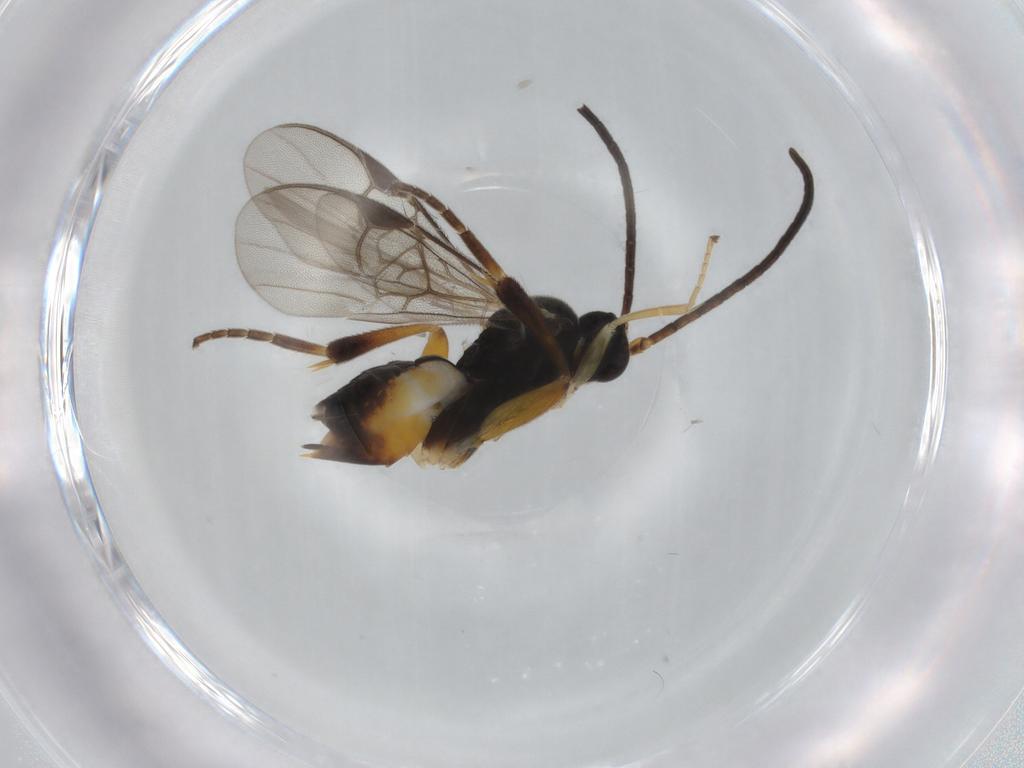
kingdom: Animalia
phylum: Arthropoda
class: Insecta
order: Hymenoptera
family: Braconidae
